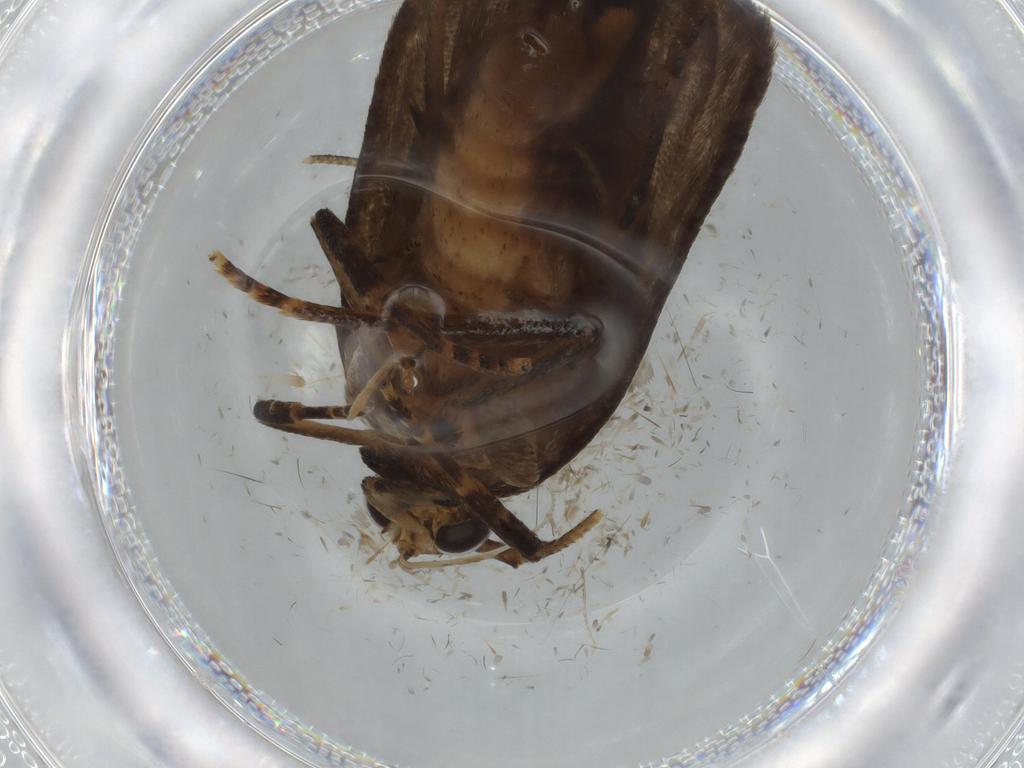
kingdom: Animalia
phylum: Arthropoda
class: Insecta
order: Lepidoptera
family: Autostichidae
